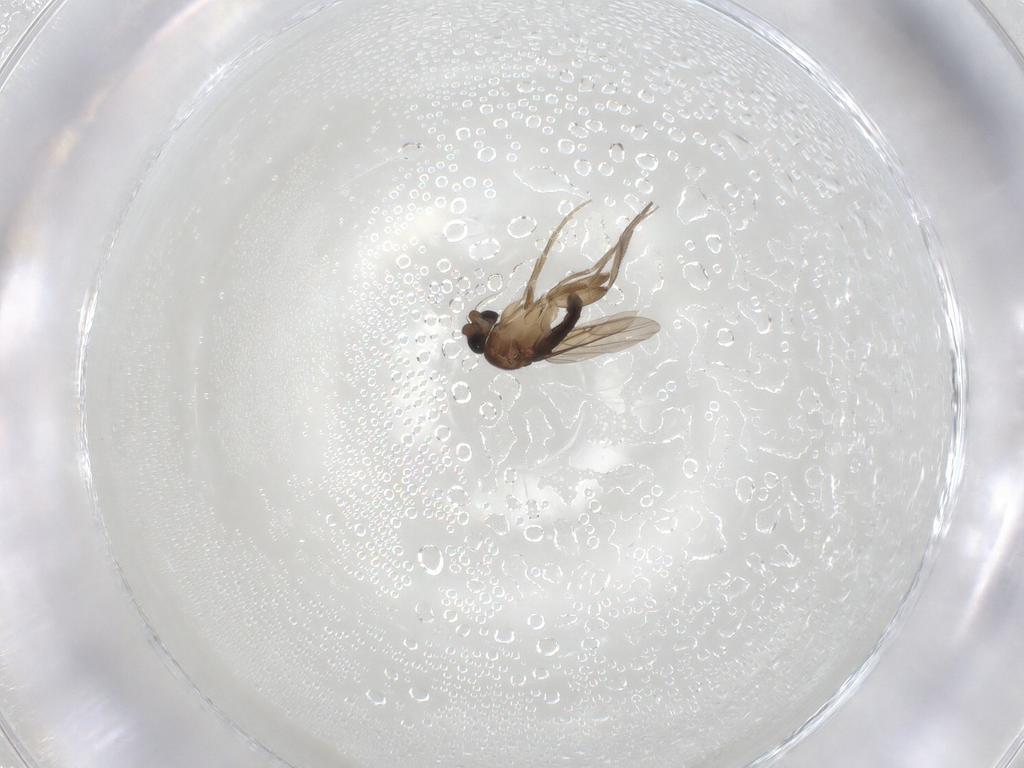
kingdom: Animalia
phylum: Arthropoda
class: Insecta
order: Diptera
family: Phoridae
